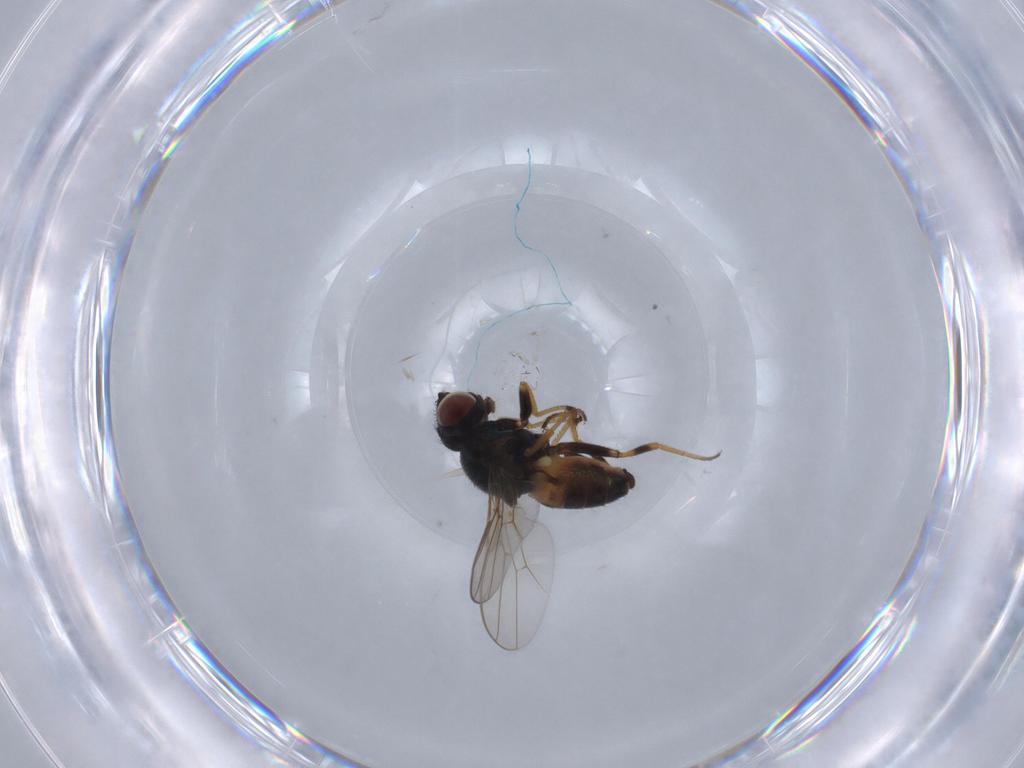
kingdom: Animalia
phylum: Arthropoda
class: Insecta
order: Diptera
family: Chloropidae
